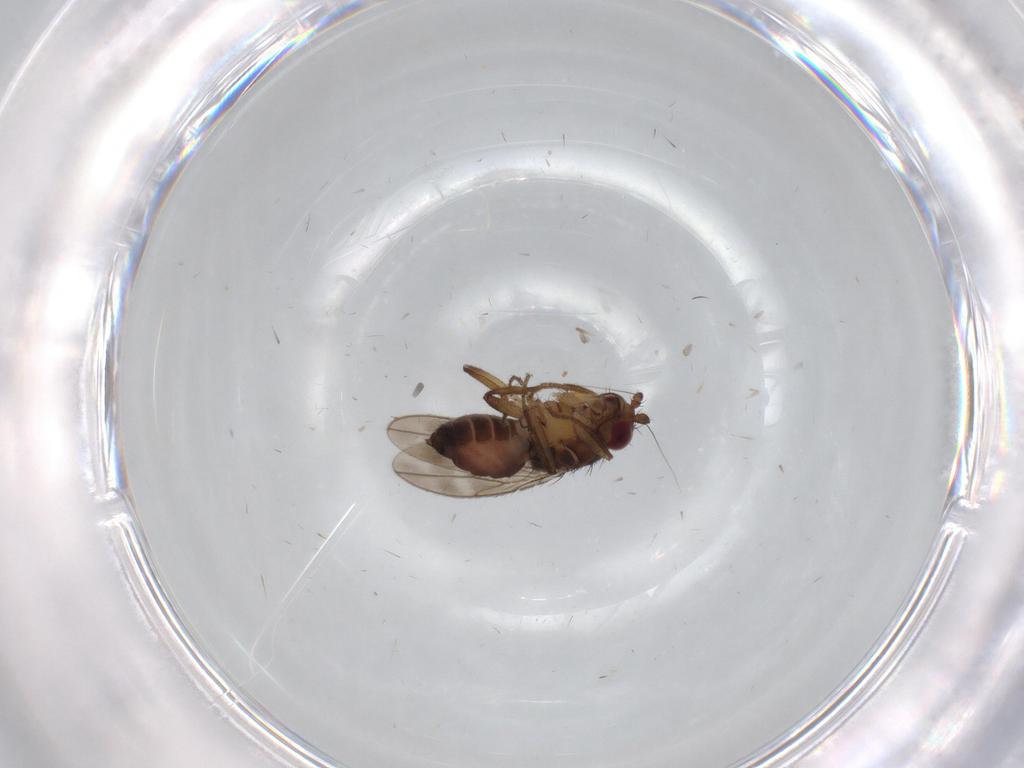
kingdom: Animalia
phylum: Arthropoda
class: Insecta
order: Diptera
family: Sphaeroceridae
